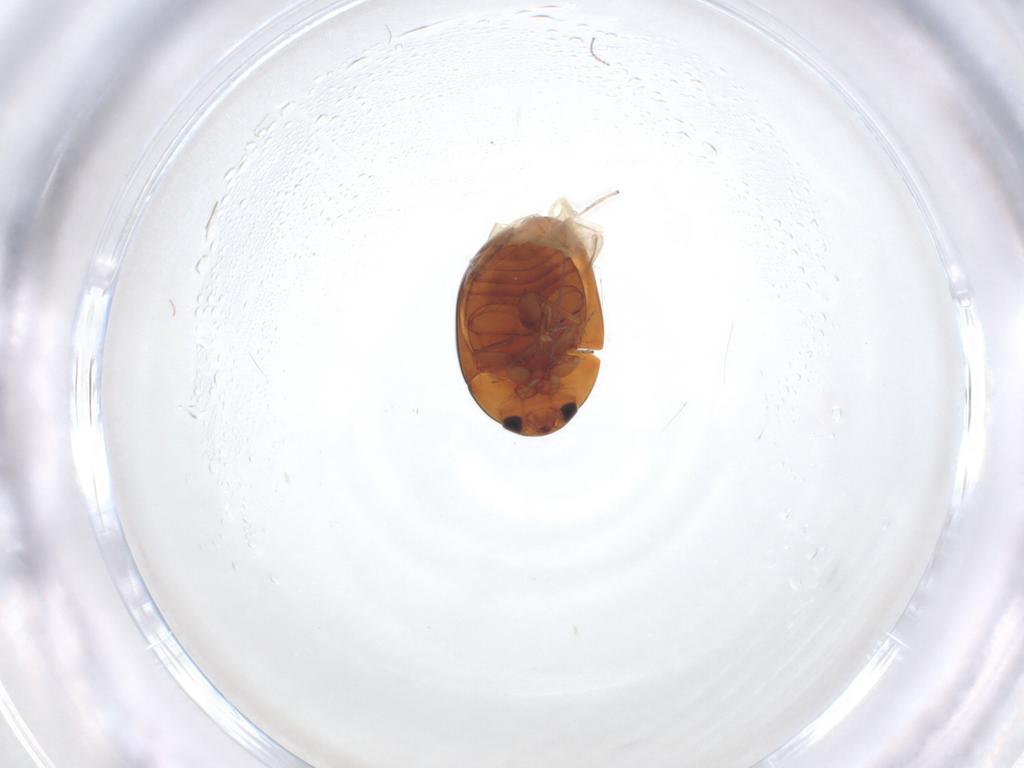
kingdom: Animalia
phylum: Arthropoda
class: Insecta
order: Coleoptera
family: Phalacridae
